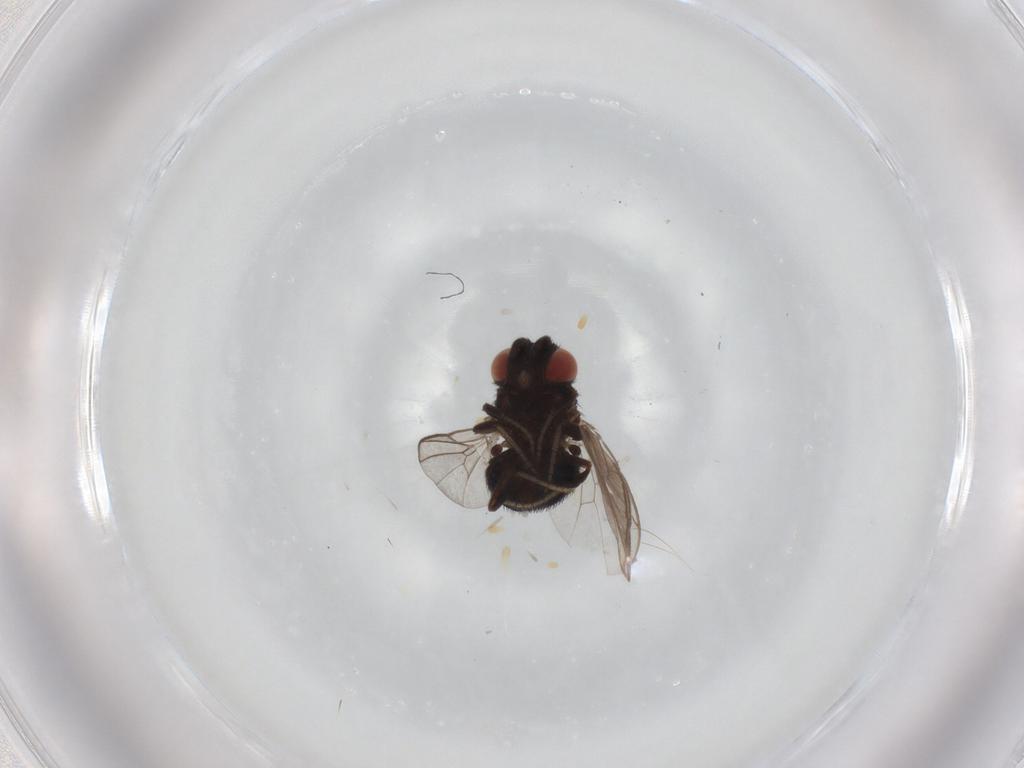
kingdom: Animalia
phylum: Arthropoda
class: Insecta
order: Diptera
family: Cryptochetidae
